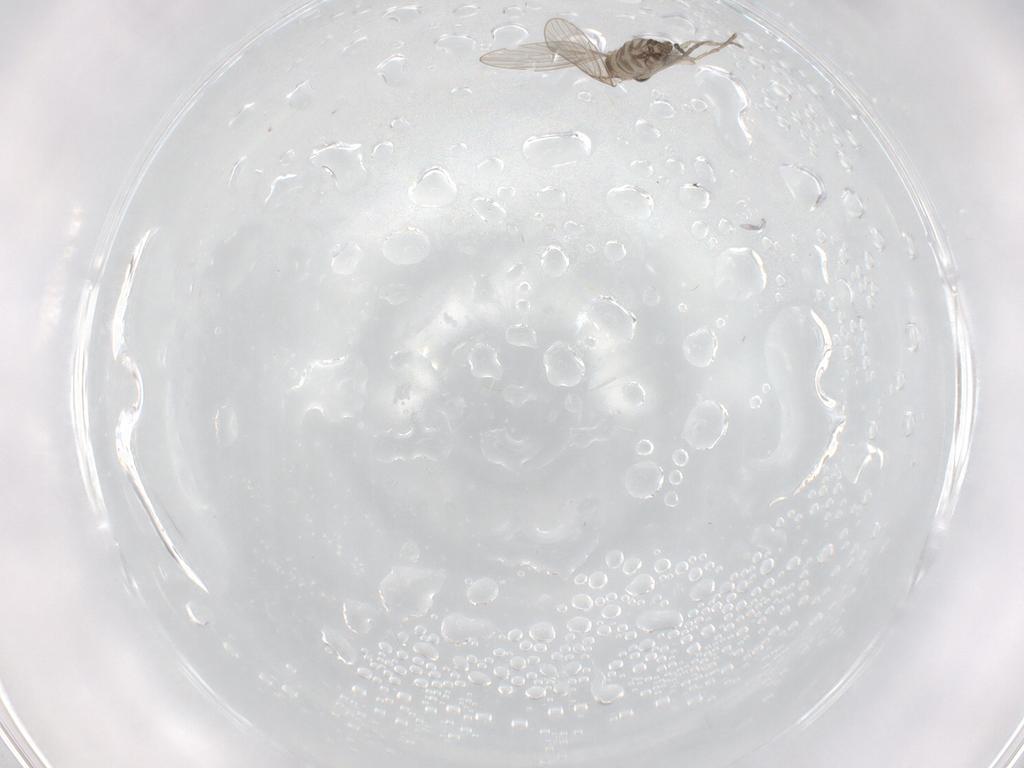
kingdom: Animalia
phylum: Arthropoda
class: Insecta
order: Diptera
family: Psychodidae
